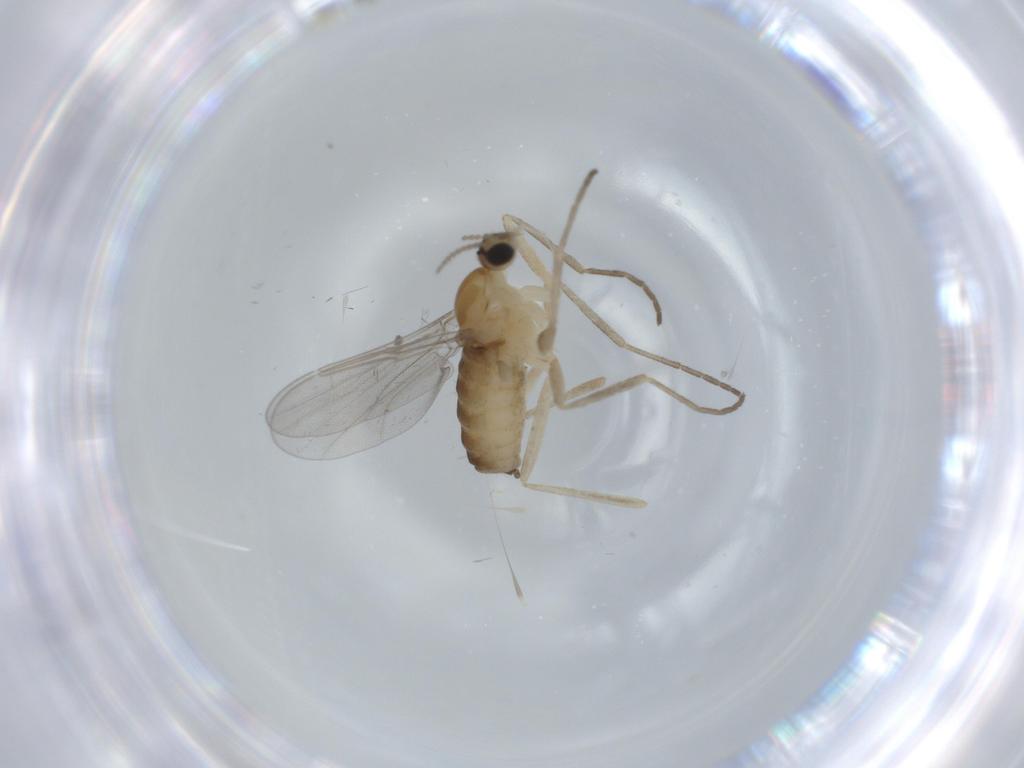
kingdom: Animalia
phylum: Arthropoda
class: Insecta
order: Diptera
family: Cecidomyiidae
